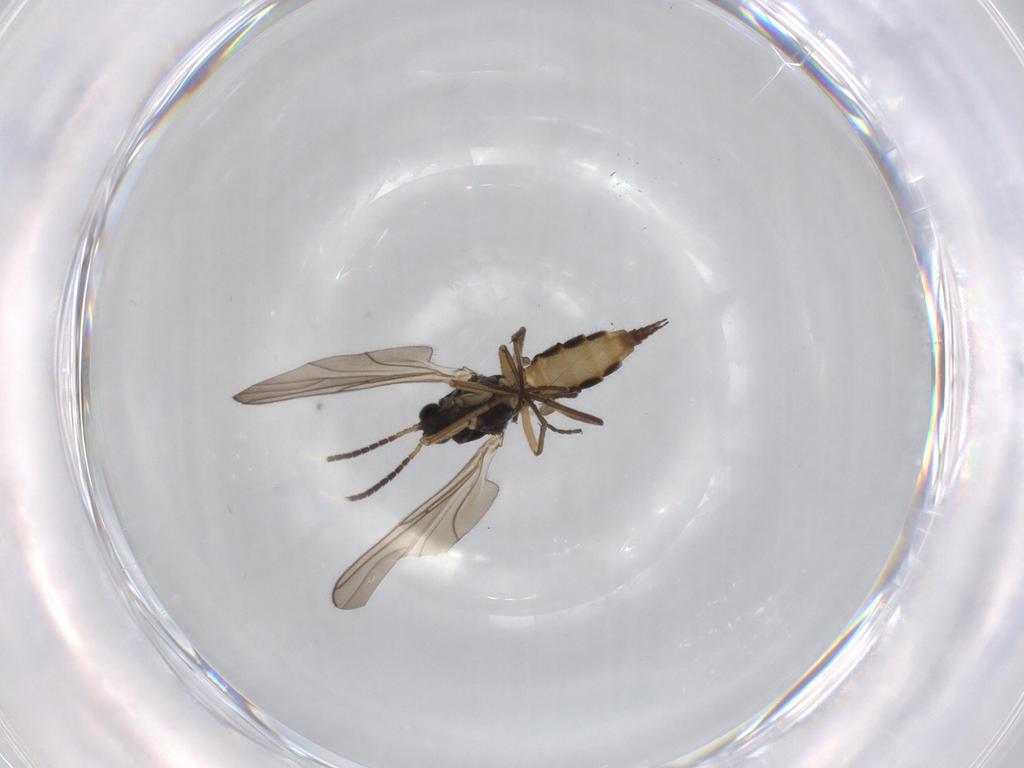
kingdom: Animalia
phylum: Arthropoda
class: Insecta
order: Diptera
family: Sciaridae
